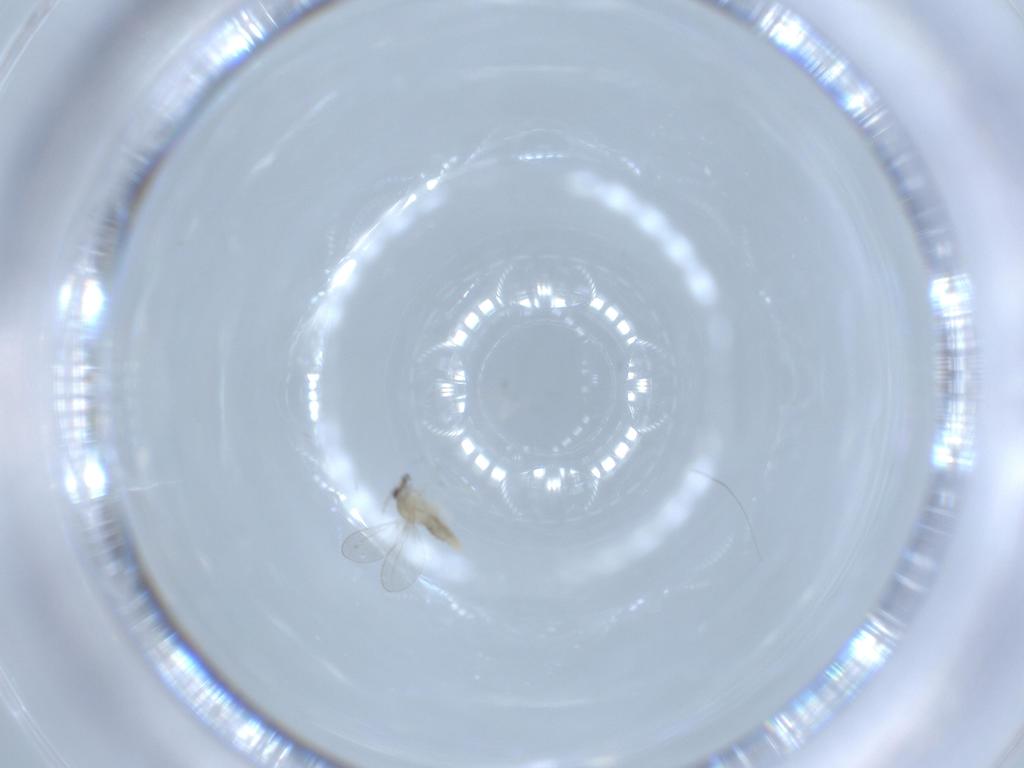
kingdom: Animalia
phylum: Arthropoda
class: Insecta
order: Diptera
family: Cecidomyiidae
